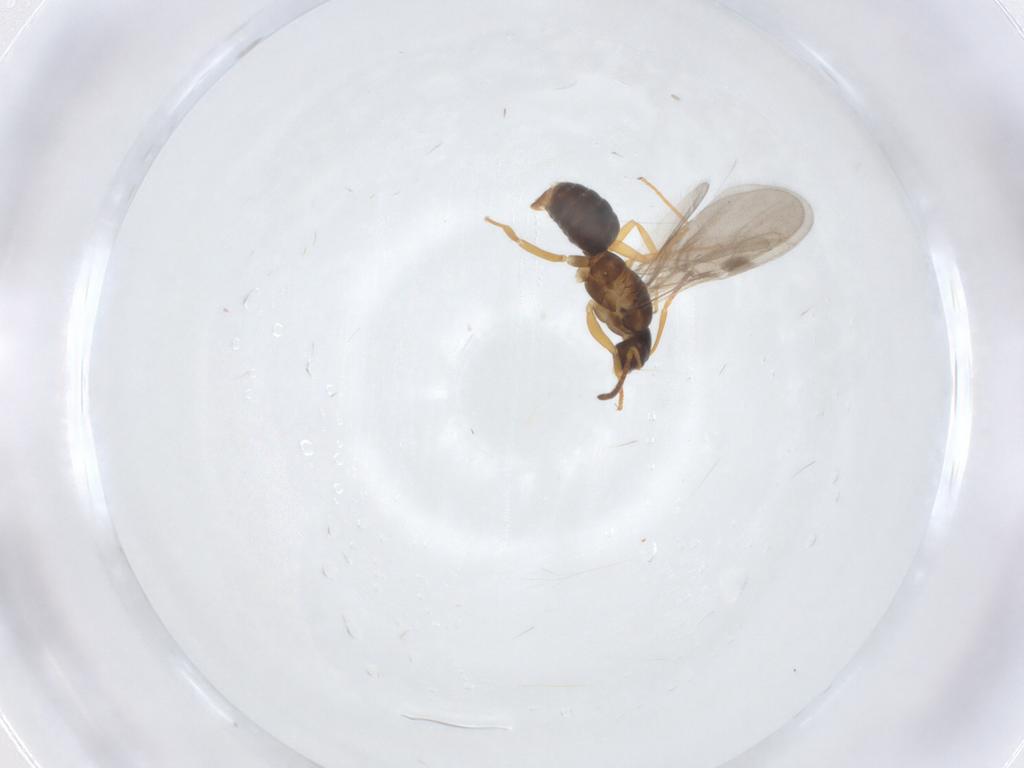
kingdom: Animalia
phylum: Arthropoda
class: Insecta
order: Hymenoptera
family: Formicidae
